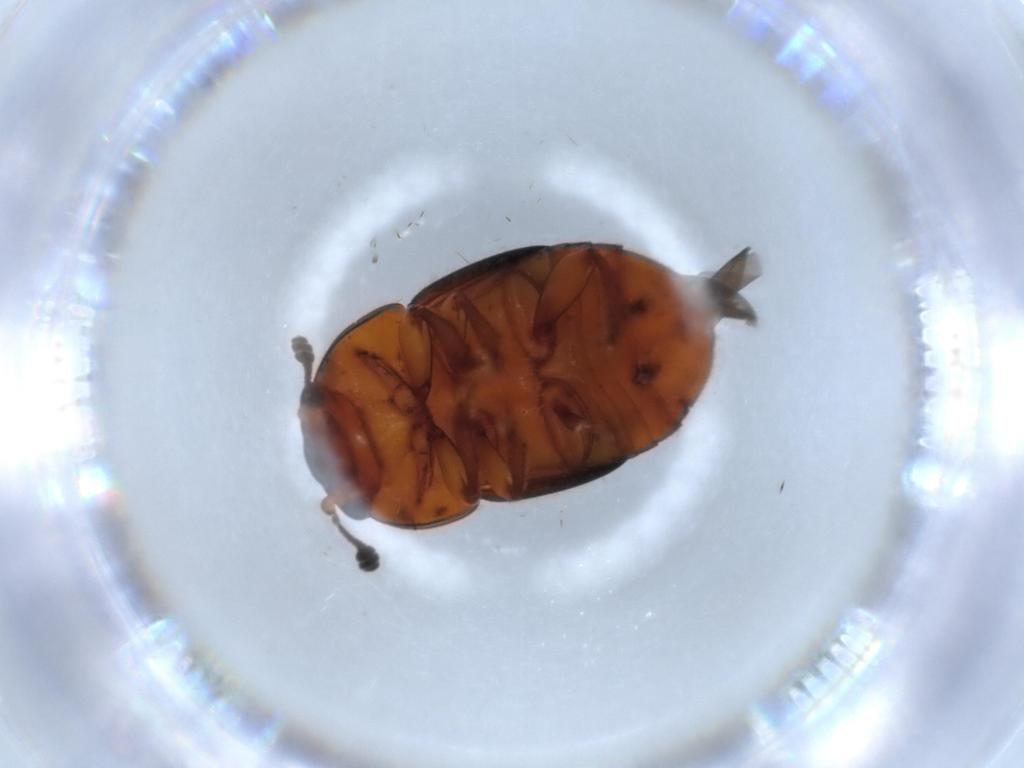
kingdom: Animalia
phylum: Arthropoda
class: Insecta
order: Coleoptera
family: Nitidulidae
